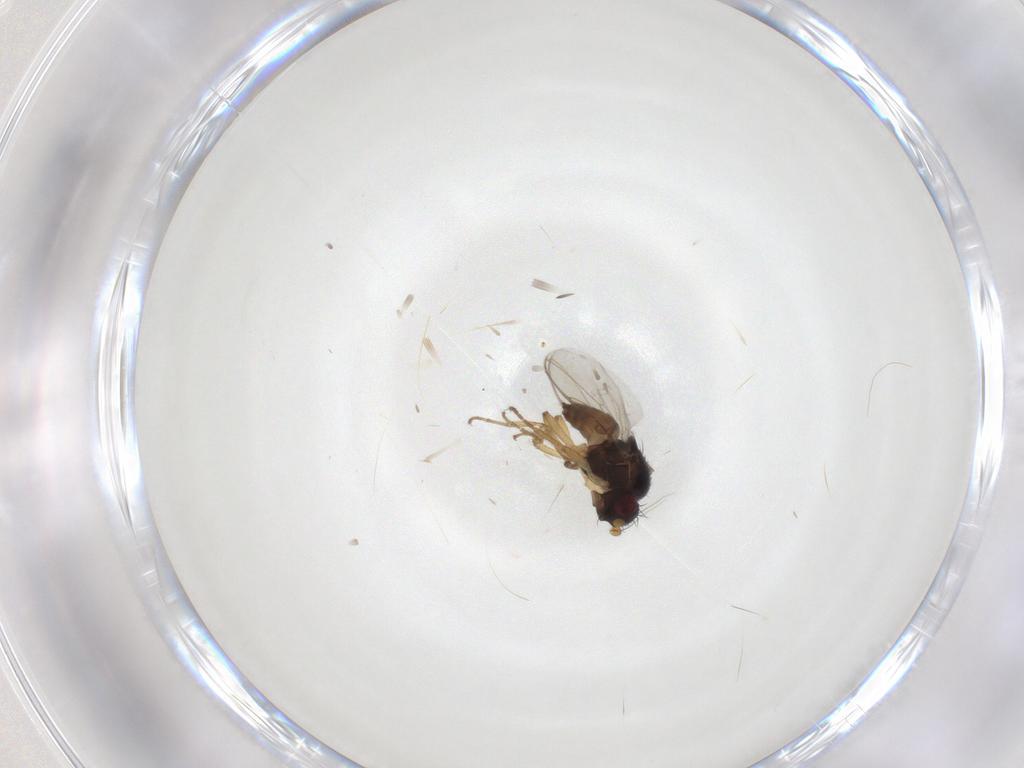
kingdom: Animalia
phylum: Arthropoda
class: Insecta
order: Diptera
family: Sphaeroceridae
